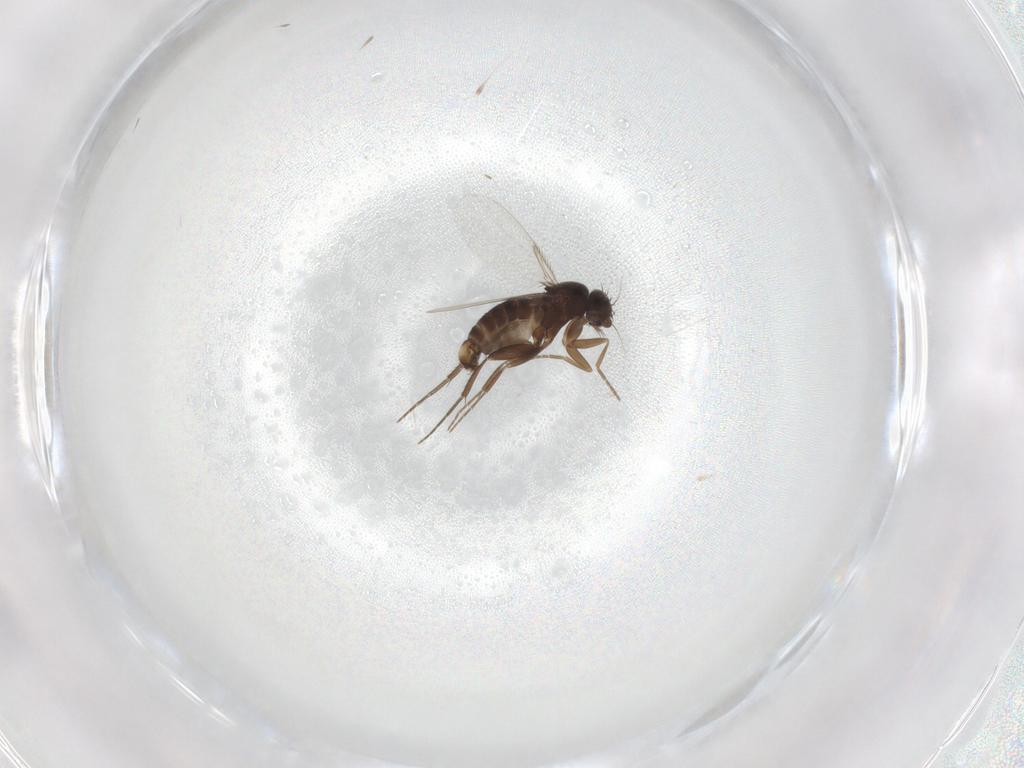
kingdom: Animalia
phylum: Arthropoda
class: Insecta
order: Diptera
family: Phoridae
